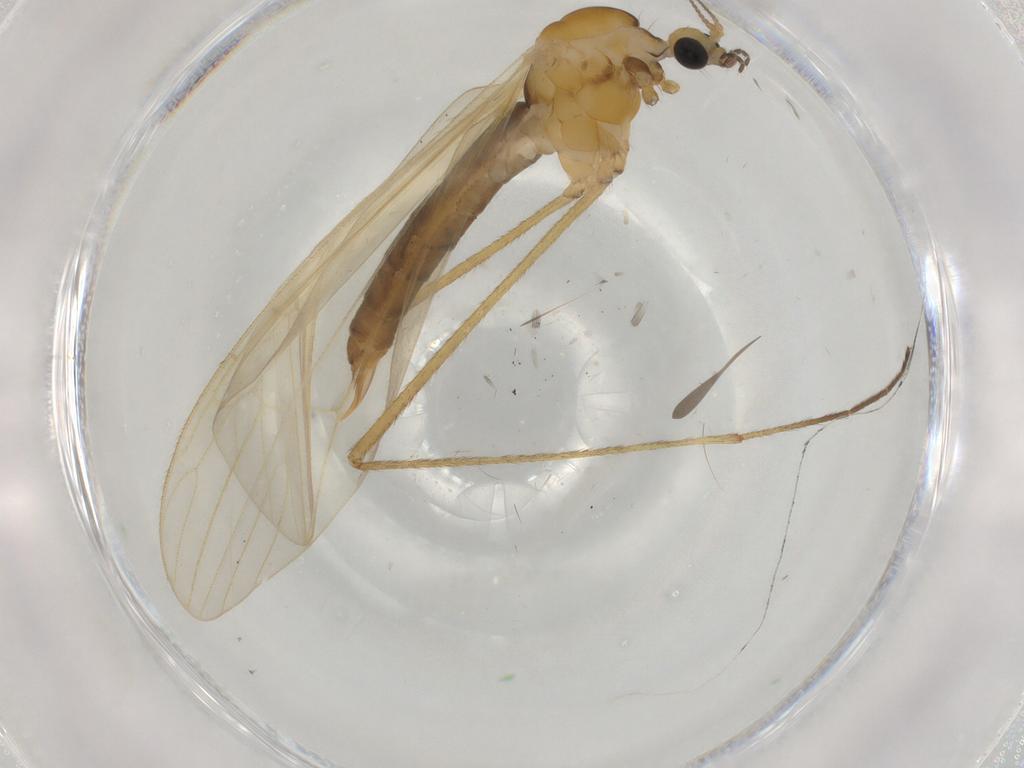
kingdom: Animalia
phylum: Arthropoda
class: Insecta
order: Diptera
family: Limoniidae
